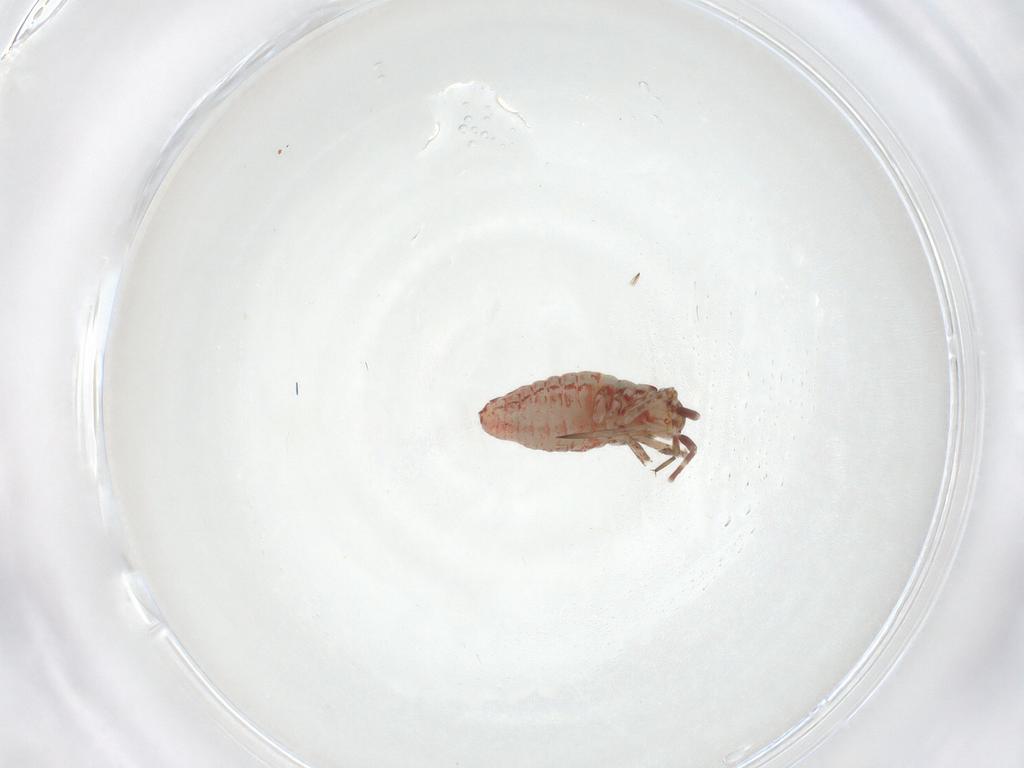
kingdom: Animalia
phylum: Arthropoda
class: Insecta
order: Hemiptera
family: Miridae
